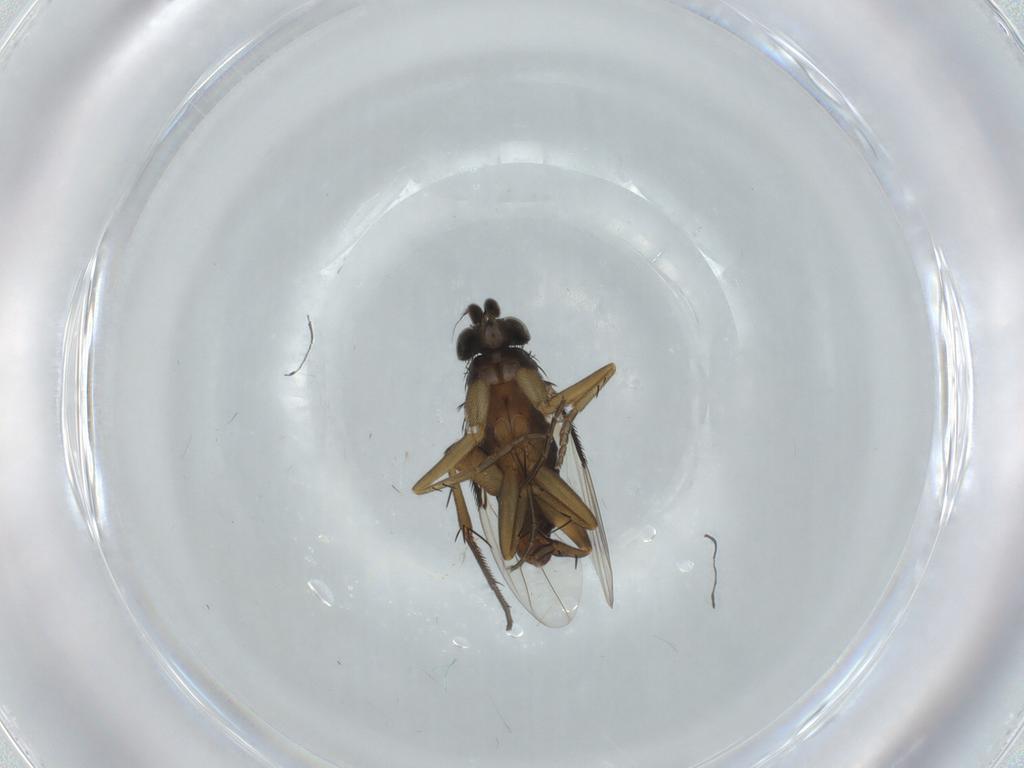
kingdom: Animalia
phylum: Arthropoda
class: Insecta
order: Diptera
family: Phoridae
